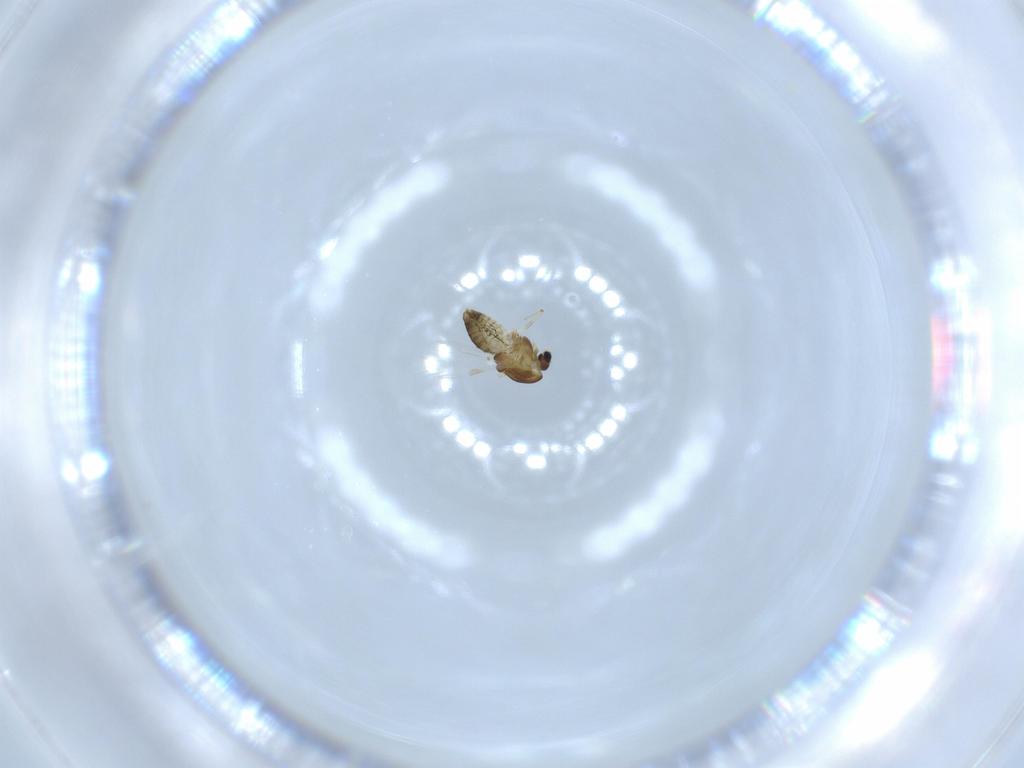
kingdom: Animalia
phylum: Arthropoda
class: Insecta
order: Diptera
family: Chironomidae
